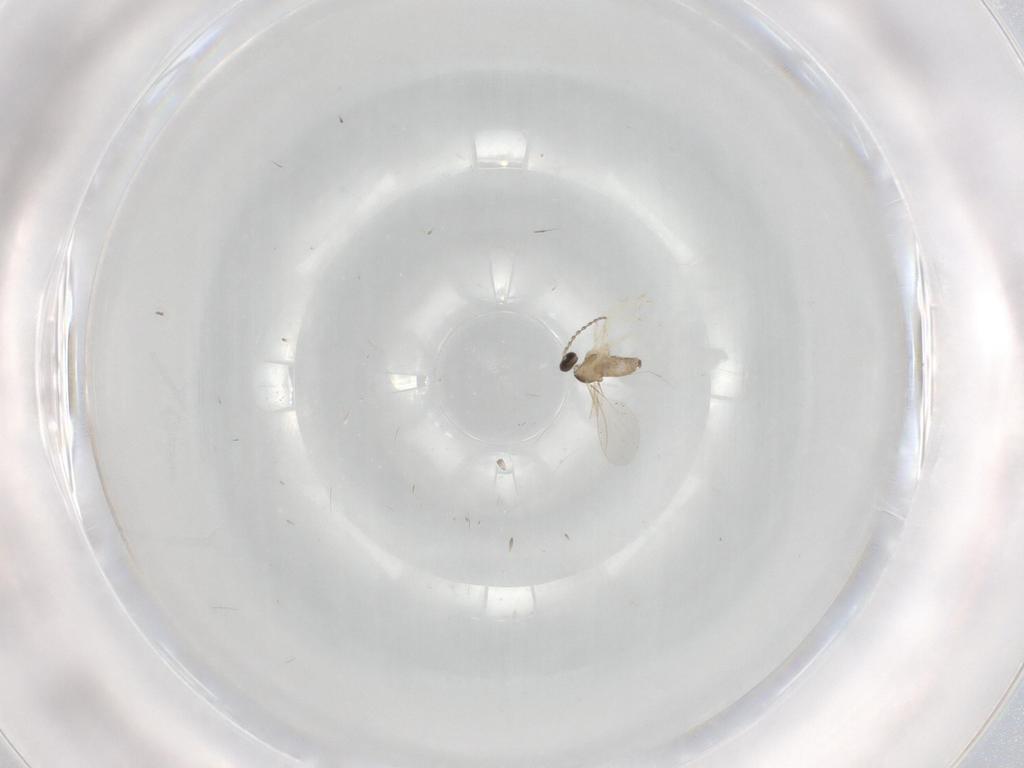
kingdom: Animalia
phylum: Arthropoda
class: Insecta
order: Diptera
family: Cecidomyiidae
